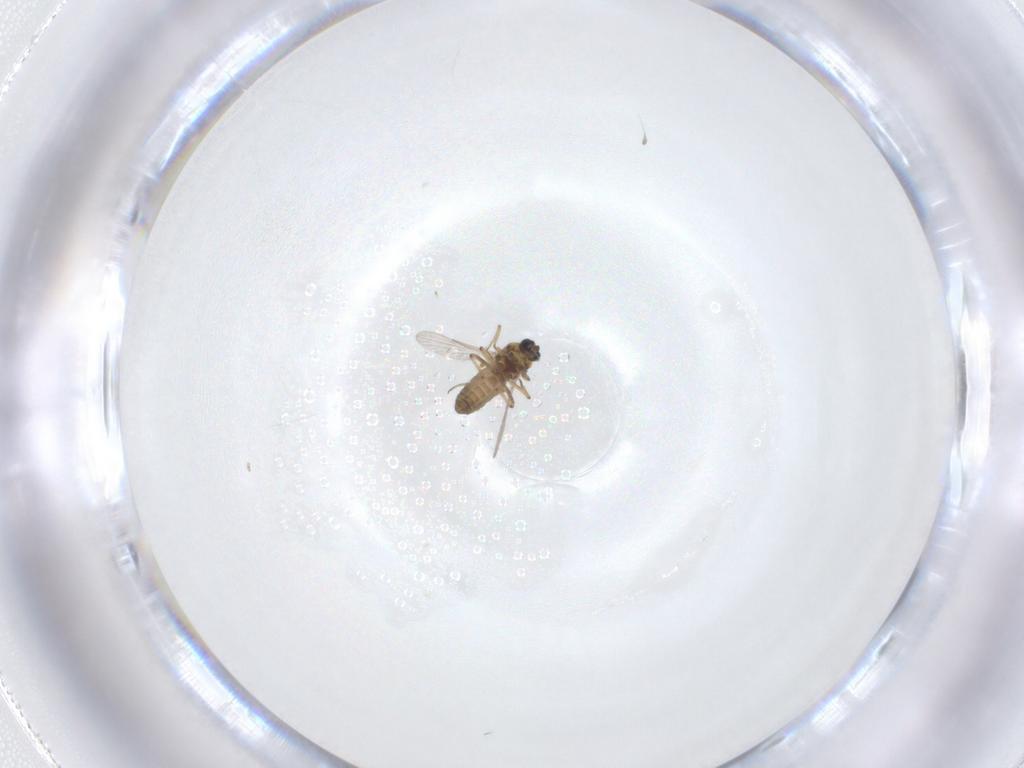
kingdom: Animalia
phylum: Arthropoda
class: Insecta
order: Diptera
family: Ceratopogonidae
